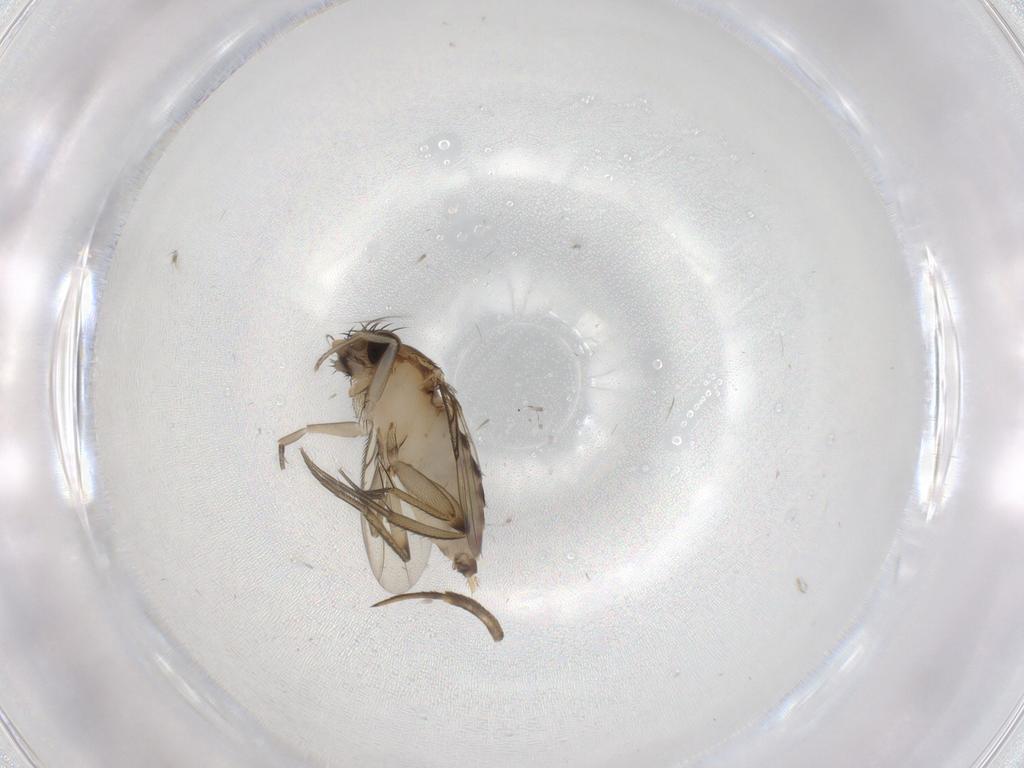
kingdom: Animalia
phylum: Arthropoda
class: Insecta
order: Diptera
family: Phoridae
